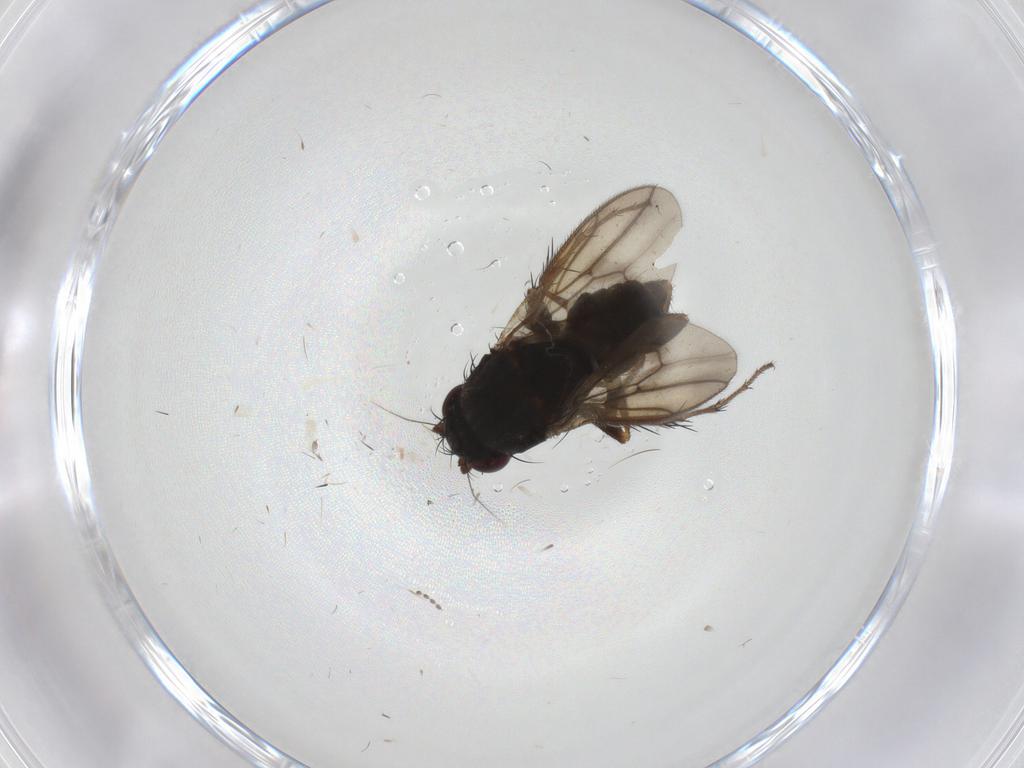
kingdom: Animalia
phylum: Arthropoda
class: Insecta
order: Diptera
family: Sphaeroceridae
